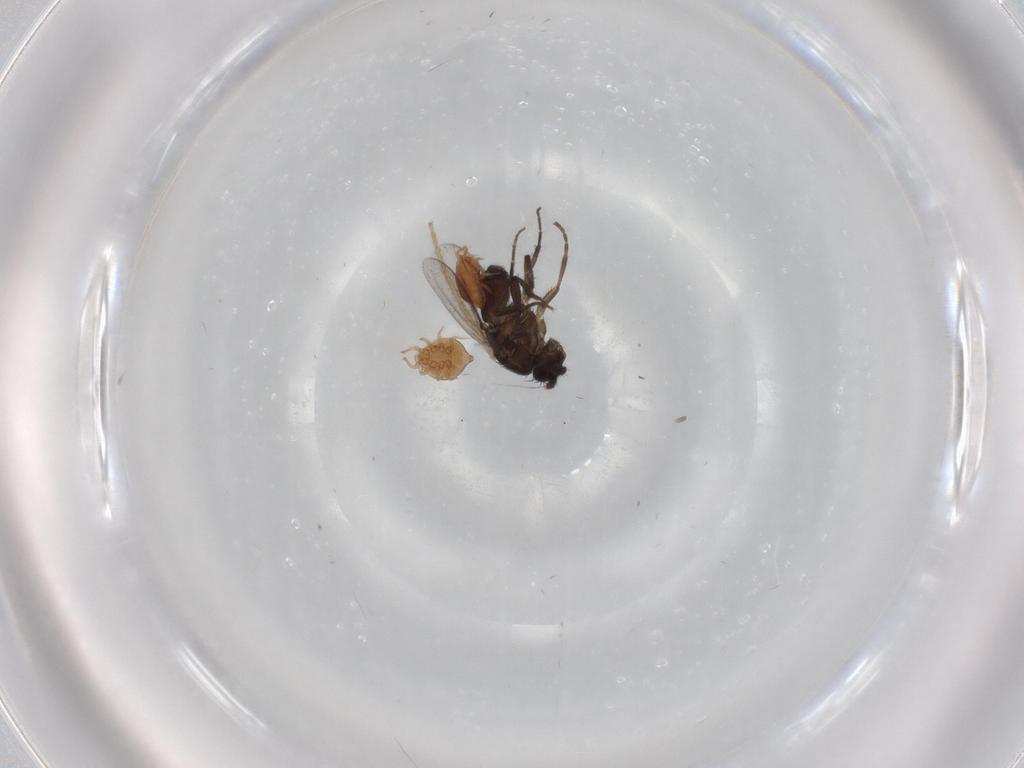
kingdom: Animalia
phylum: Arthropoda
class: Insecta
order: Diptera
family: Sphaeroceridae
